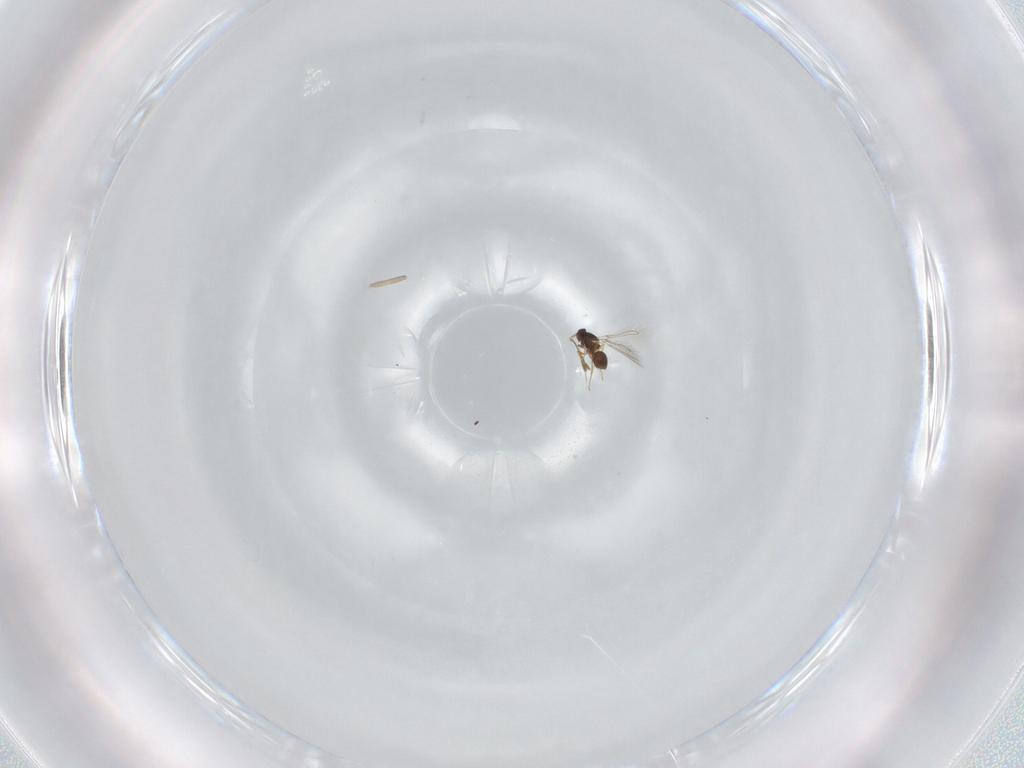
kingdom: Animalia
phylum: Arthropoda
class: Insecta
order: Hymenoptera
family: Mymaridae
